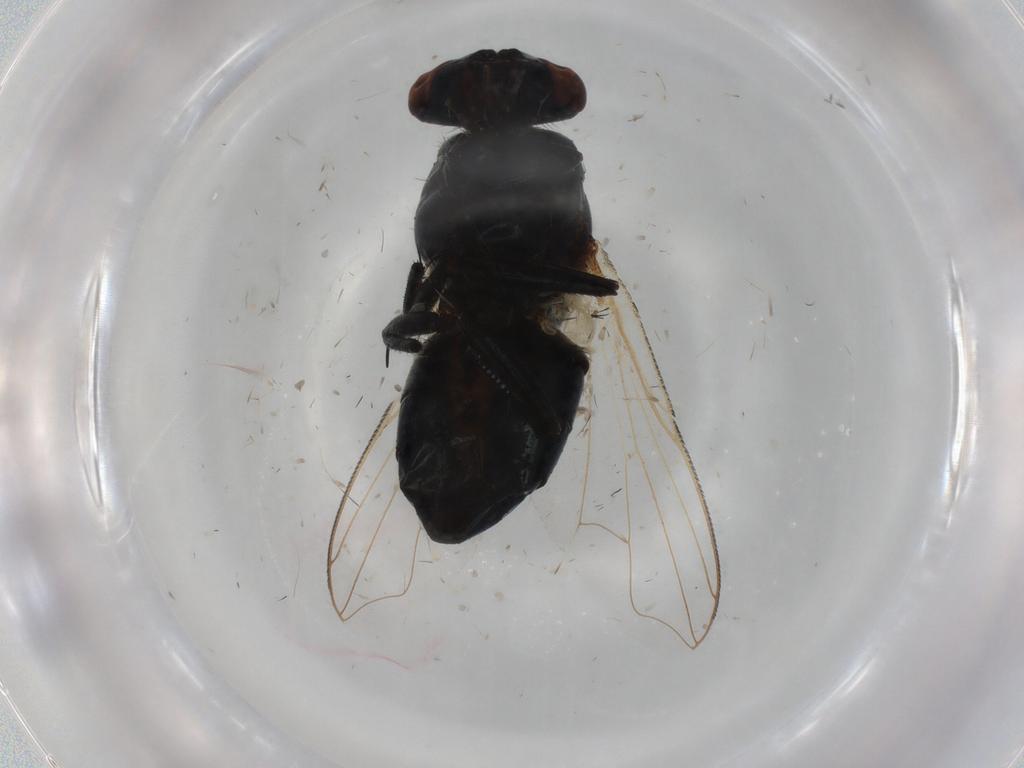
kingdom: Animalia
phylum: Arthropoda
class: Insecta
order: Diptera
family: Muscidae
